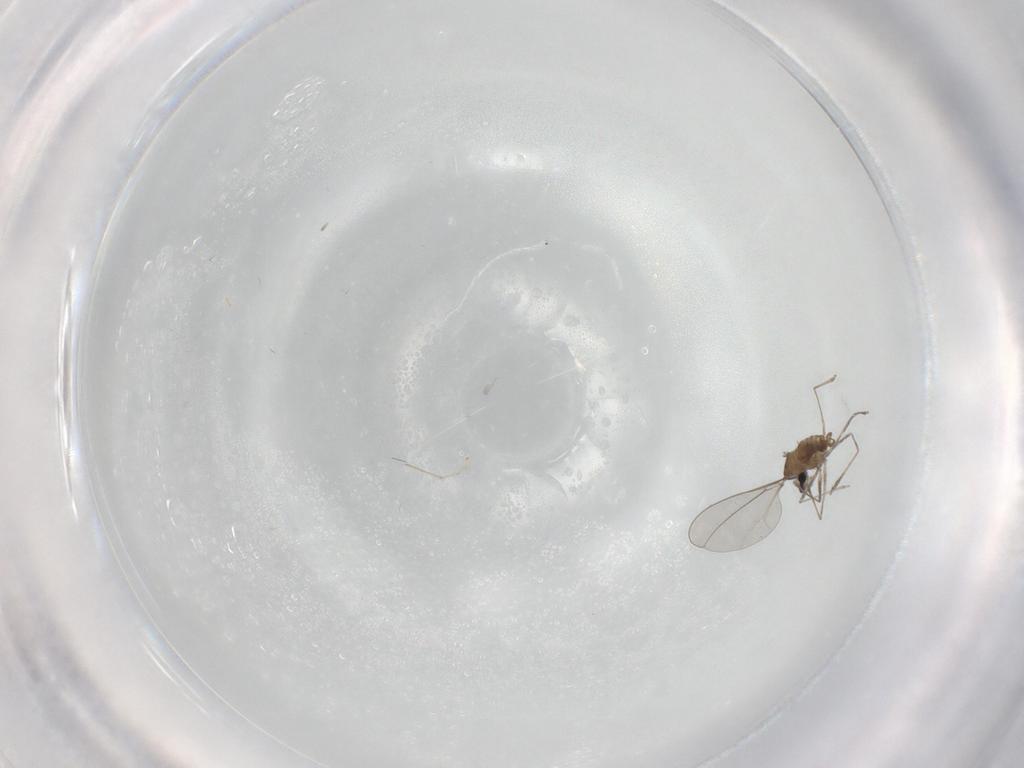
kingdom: Animalia
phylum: Arthropoda
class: Insecta
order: Diptera
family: Cecidomyiidae
